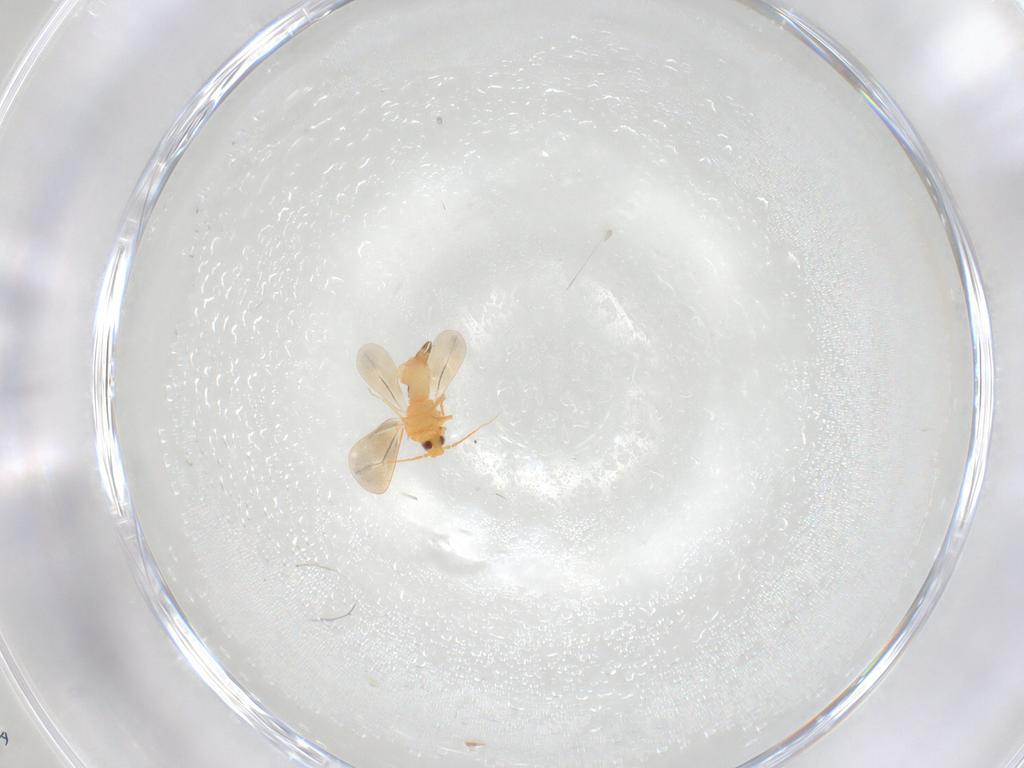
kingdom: Animalia
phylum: Arthropoda
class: Insecta
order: Hemiptera
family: Aleyrodidae
